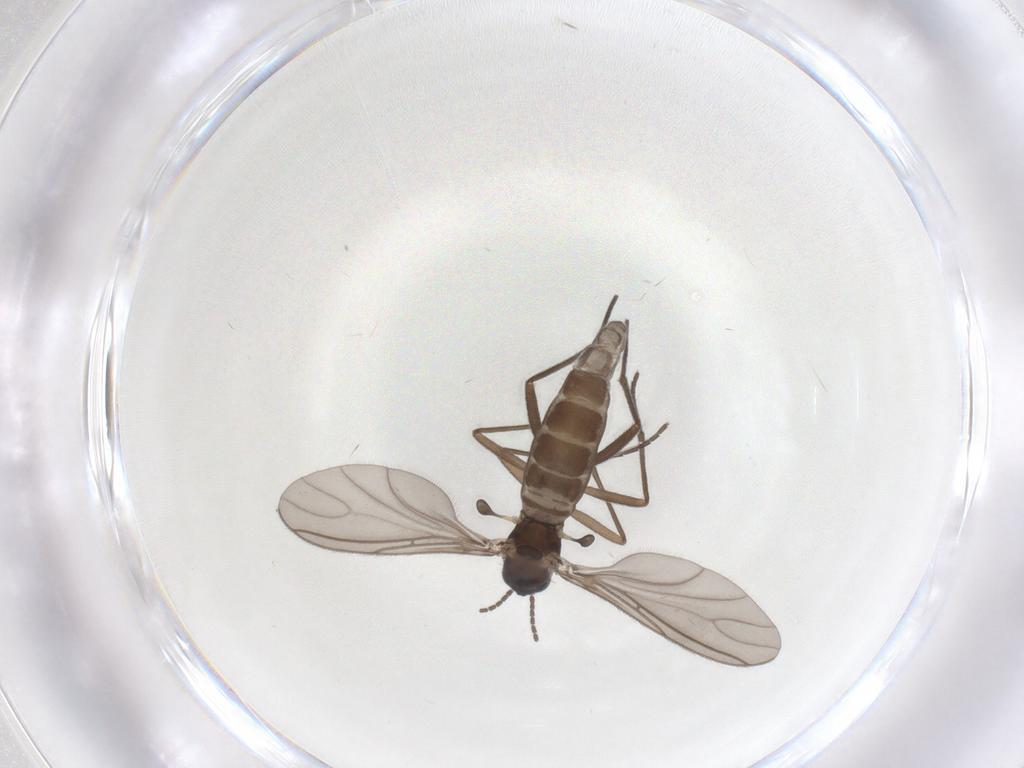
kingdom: Animalia
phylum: Arthropoda
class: Insecta
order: Diptera
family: Sciaridae
